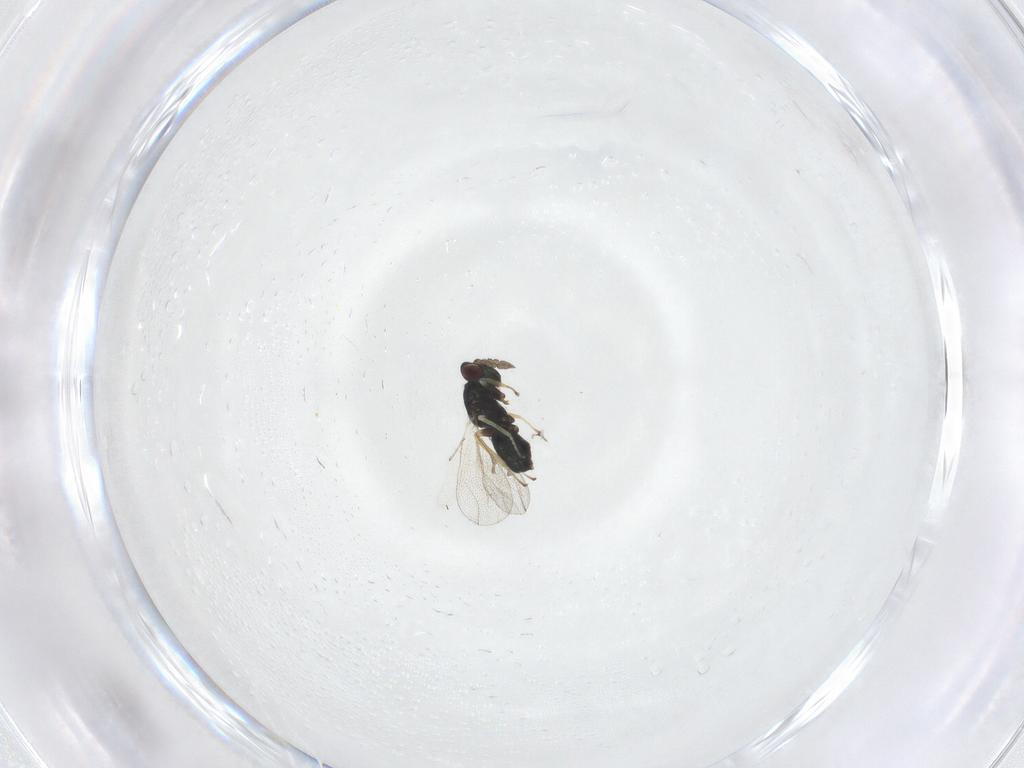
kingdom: Animalia
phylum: Arthropoda
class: Insecta
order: Hymenoptera
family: Eulophidae
